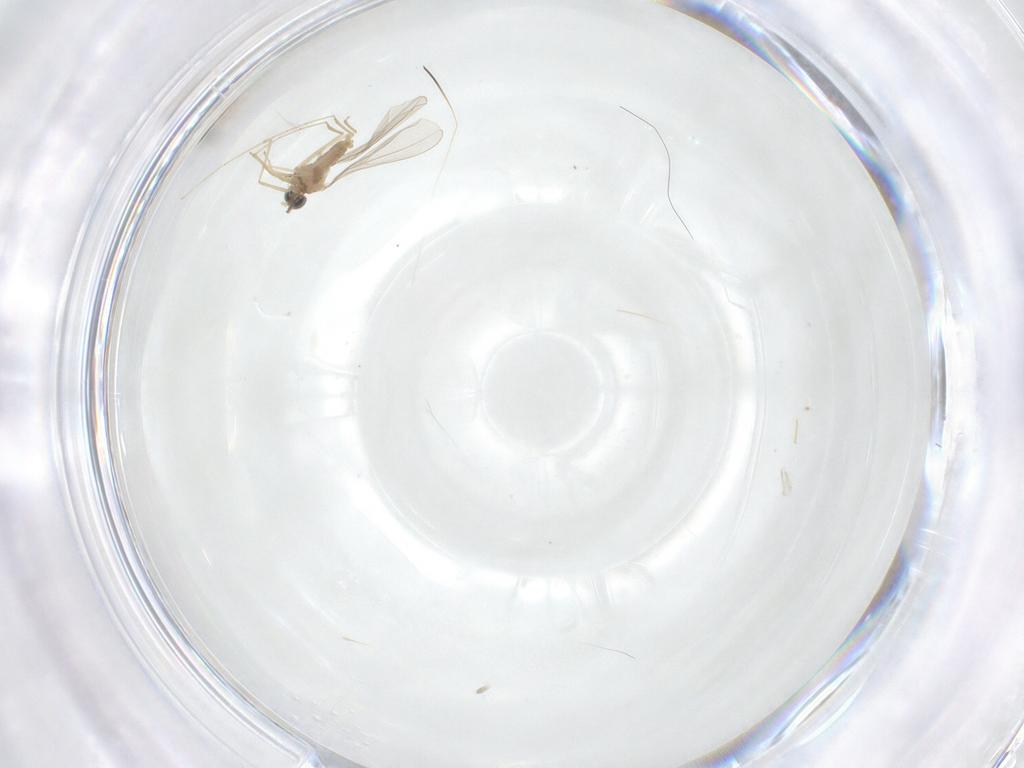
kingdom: Animalia
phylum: Arthropoda
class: Insecta
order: Diptera
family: Cecidomyiidae
